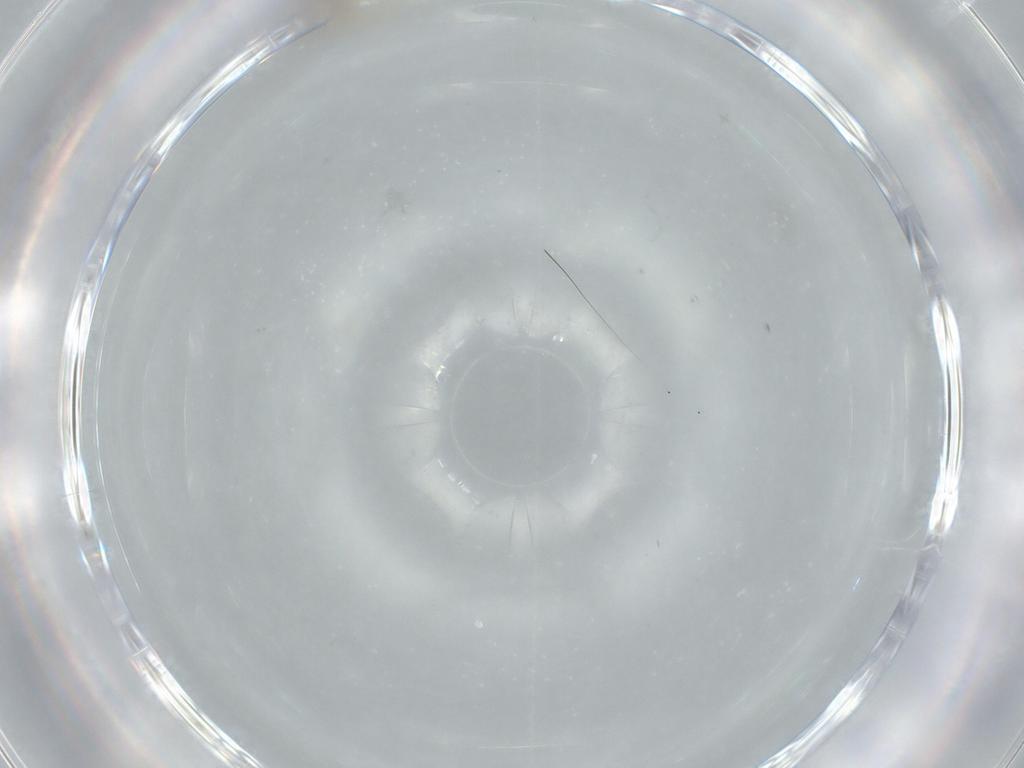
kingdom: Animalia
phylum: Arthropoda
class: Insecta
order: Diptera
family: Cecidomyiidae
